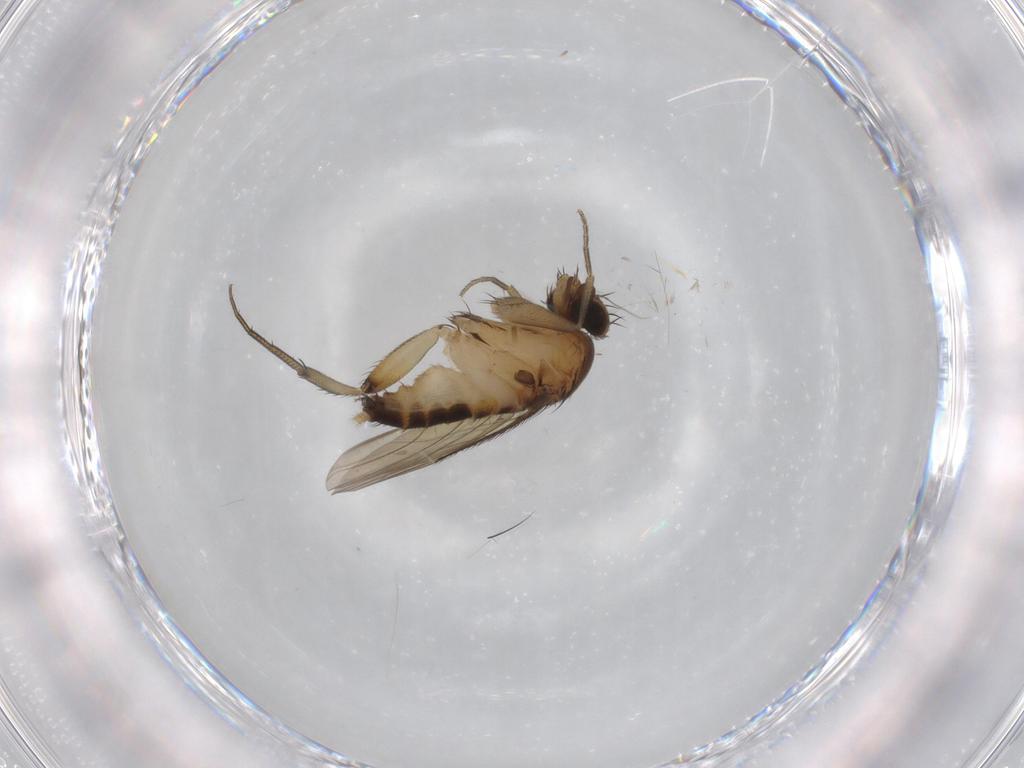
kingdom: Animalia
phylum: Arthropoda
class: Insecta
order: Diptera
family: Phoridae
